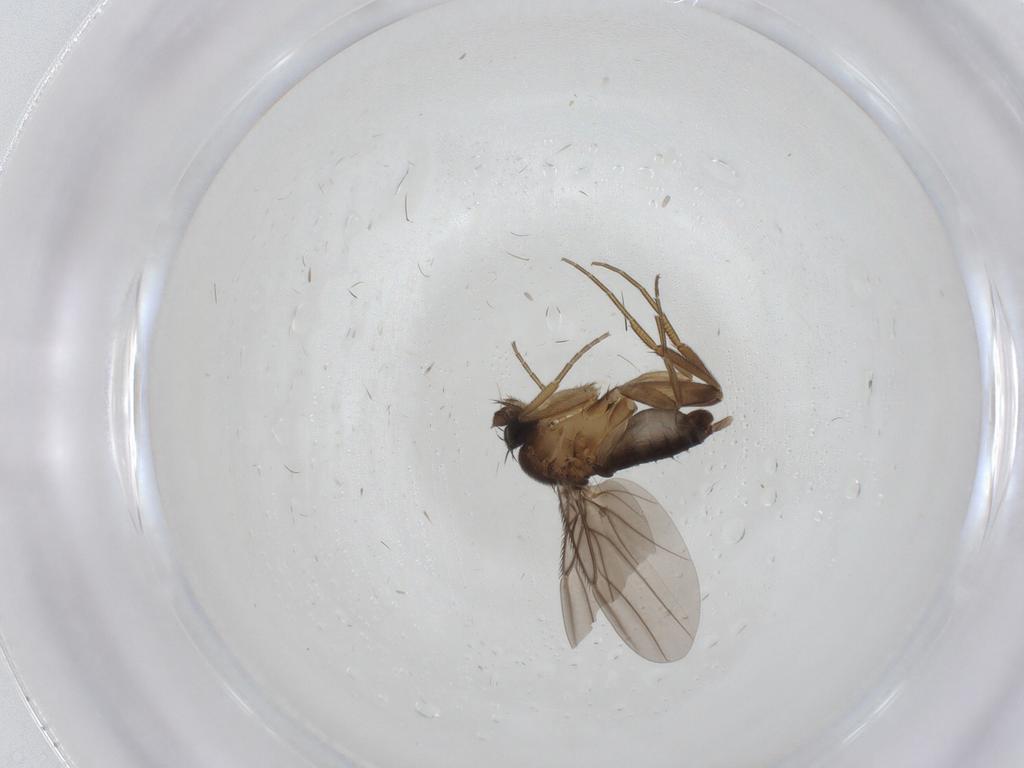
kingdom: Animalia
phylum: Arthropoda
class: Insecta
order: Diptera
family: Phoridae
